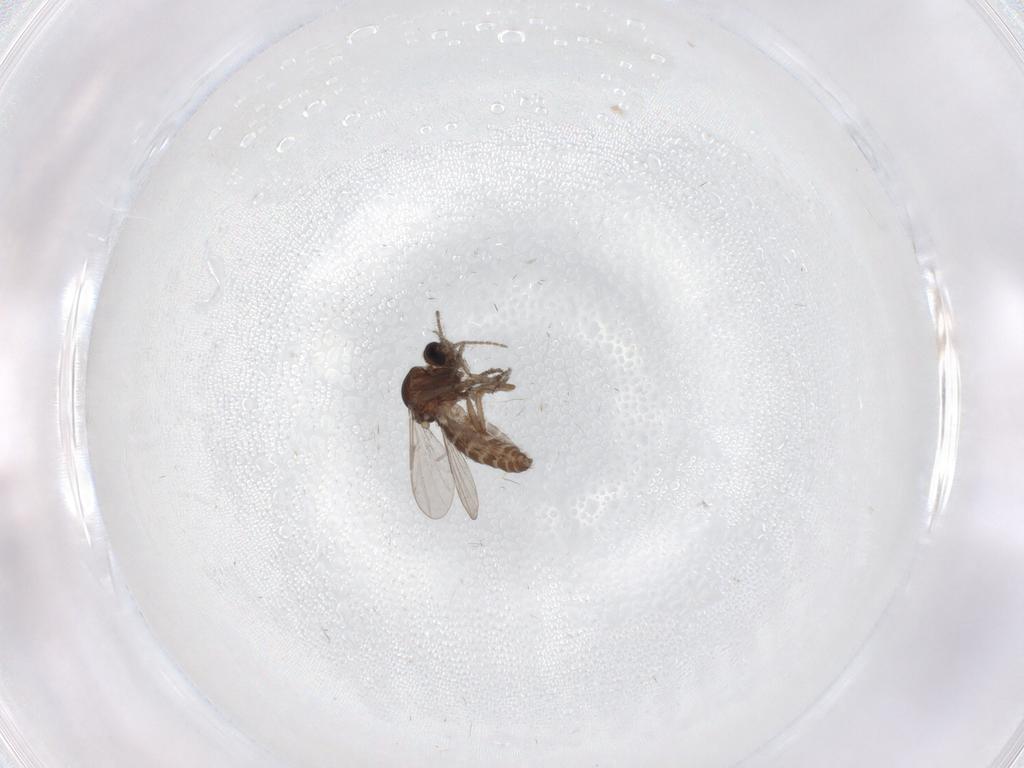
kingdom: Animalia
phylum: Arthropoda
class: Insecta
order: Diptera
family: Ceratopogonidae
